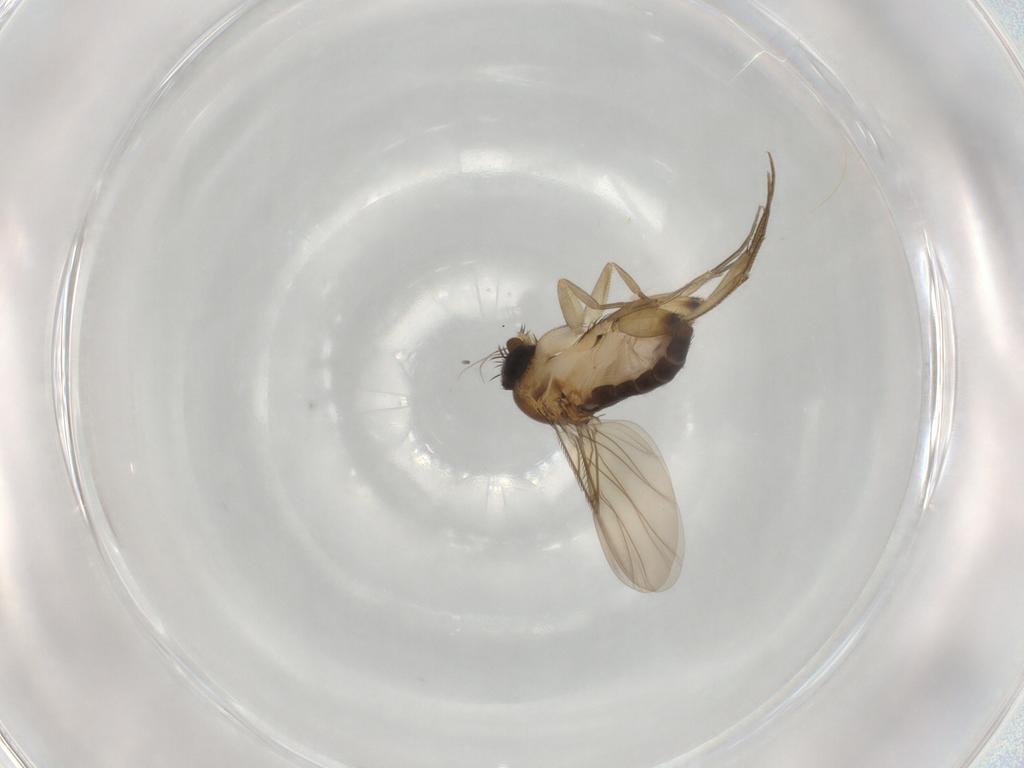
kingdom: Animalia
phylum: Arthropoda
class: Insecta
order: Diptera
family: Phoridae
